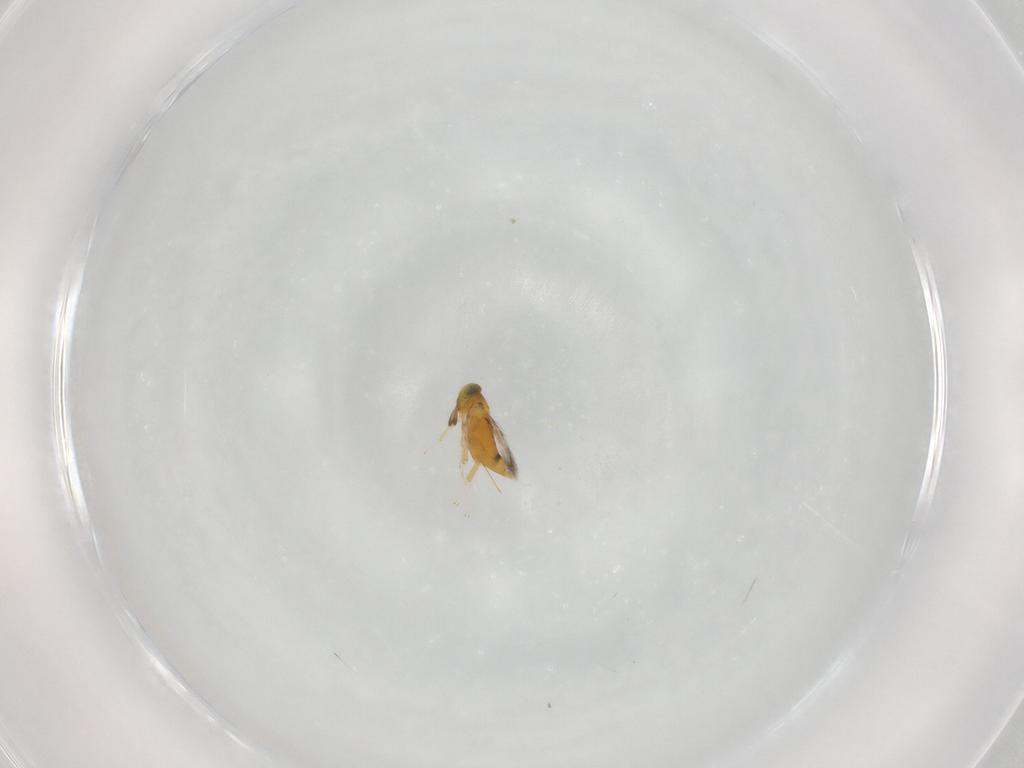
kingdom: Animalia
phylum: Arthropoda
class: Insecta
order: Hymenoptera
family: Signiphoridae
